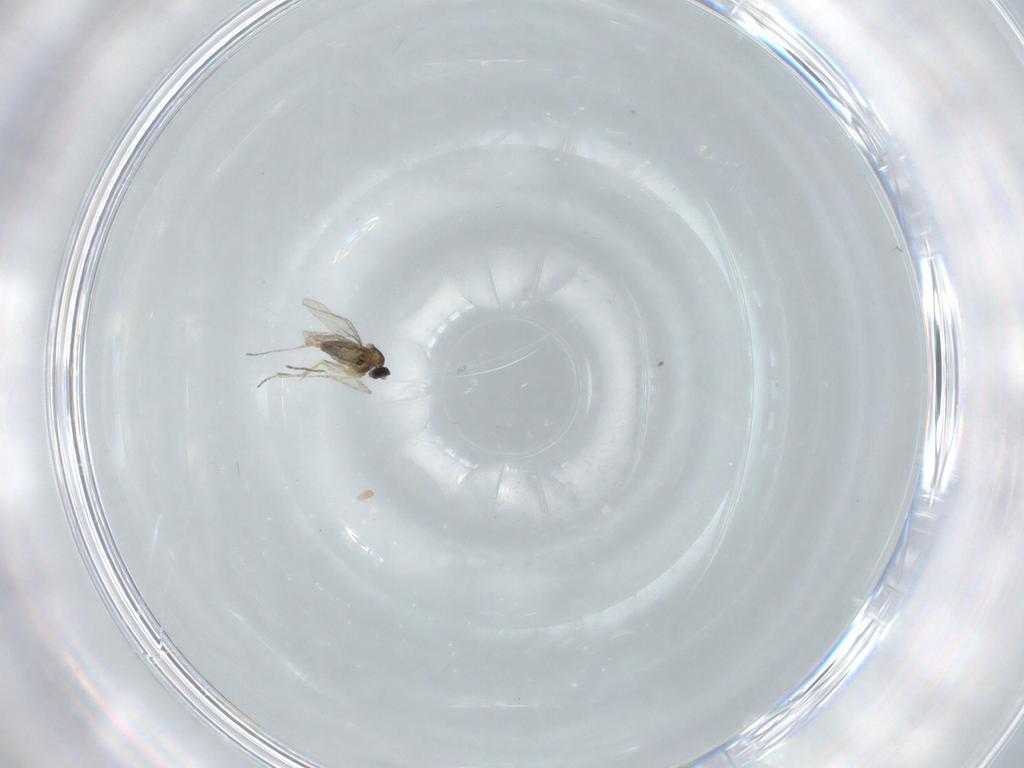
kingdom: Animalia
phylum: Arthropoda
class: Insecta
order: Diptera
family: Cecidomyiidae
